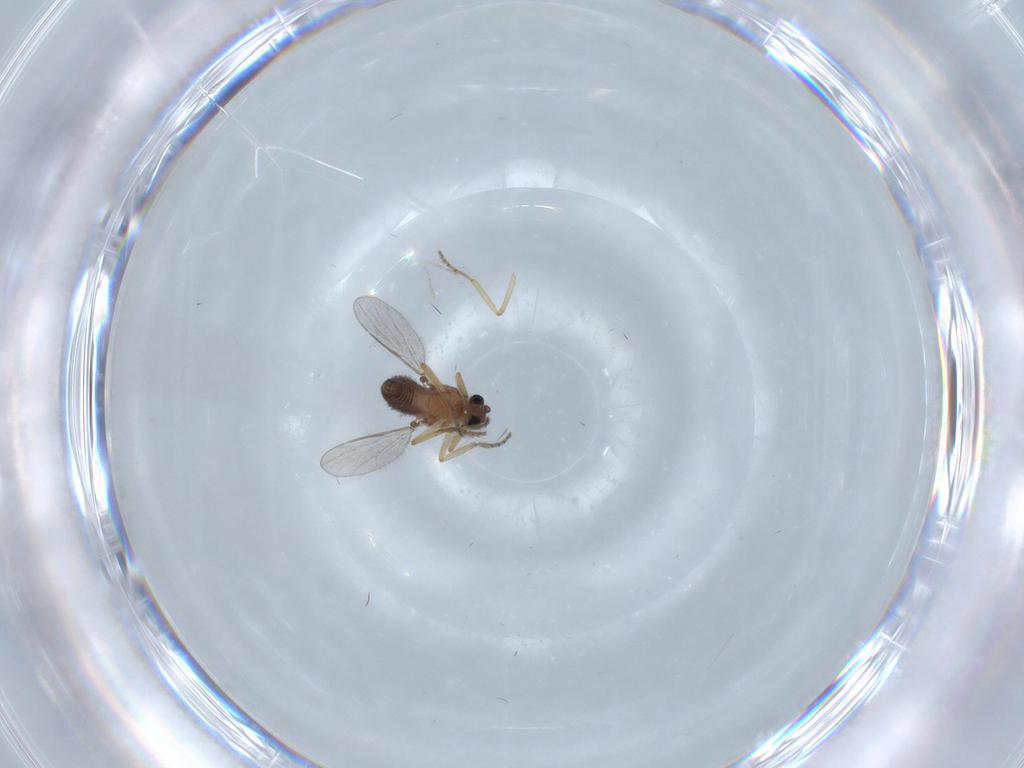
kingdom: Animalia
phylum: Arthropoda
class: Insecta
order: Diptera
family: Ceratopogonidae
